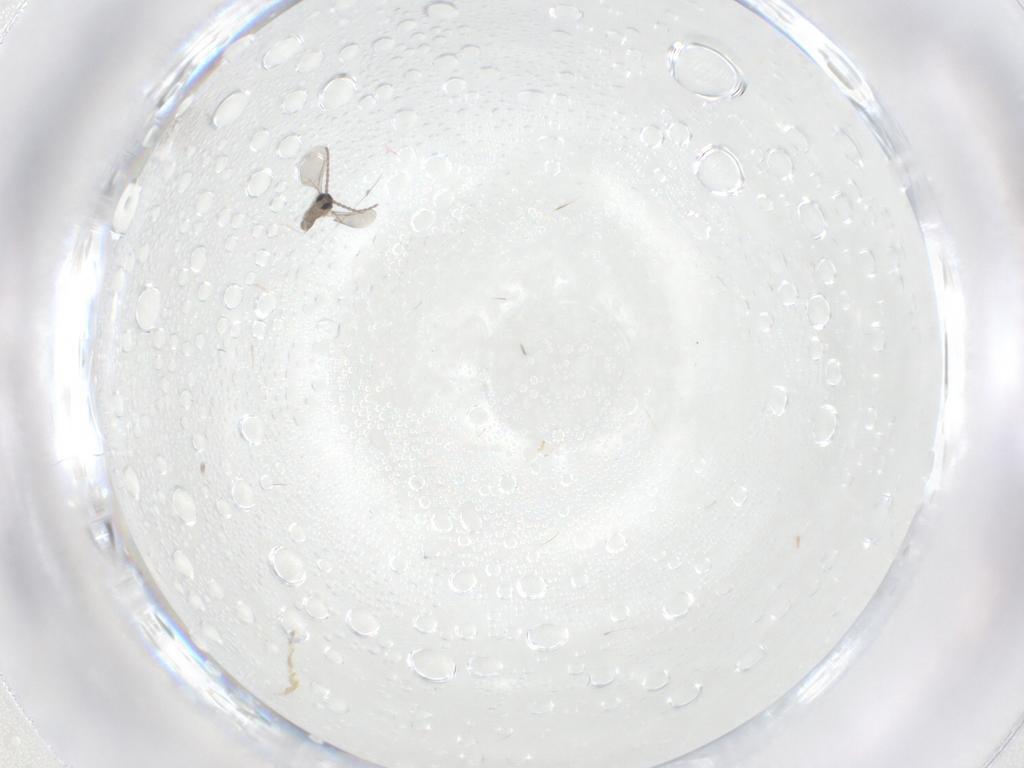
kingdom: Animalia
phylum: Arthropoda
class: Insecta
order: Diptera
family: Cecidomyiidae
